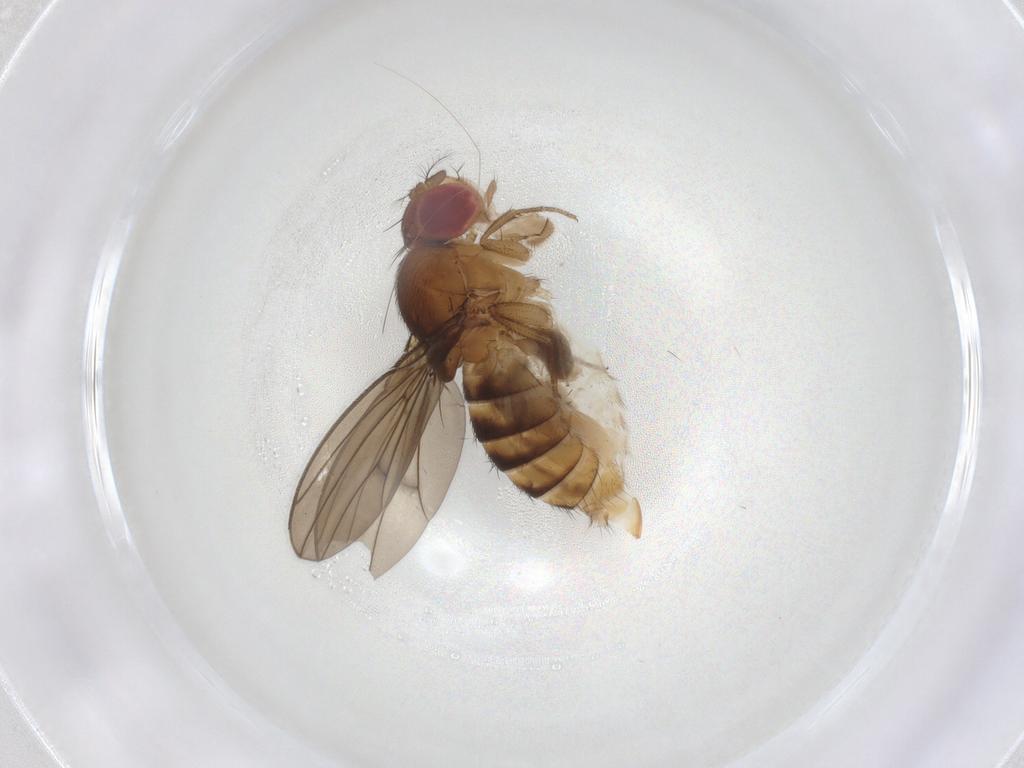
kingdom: Animalia
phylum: Arthropoda
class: Insecta
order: Diptera
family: Drosophilidae
